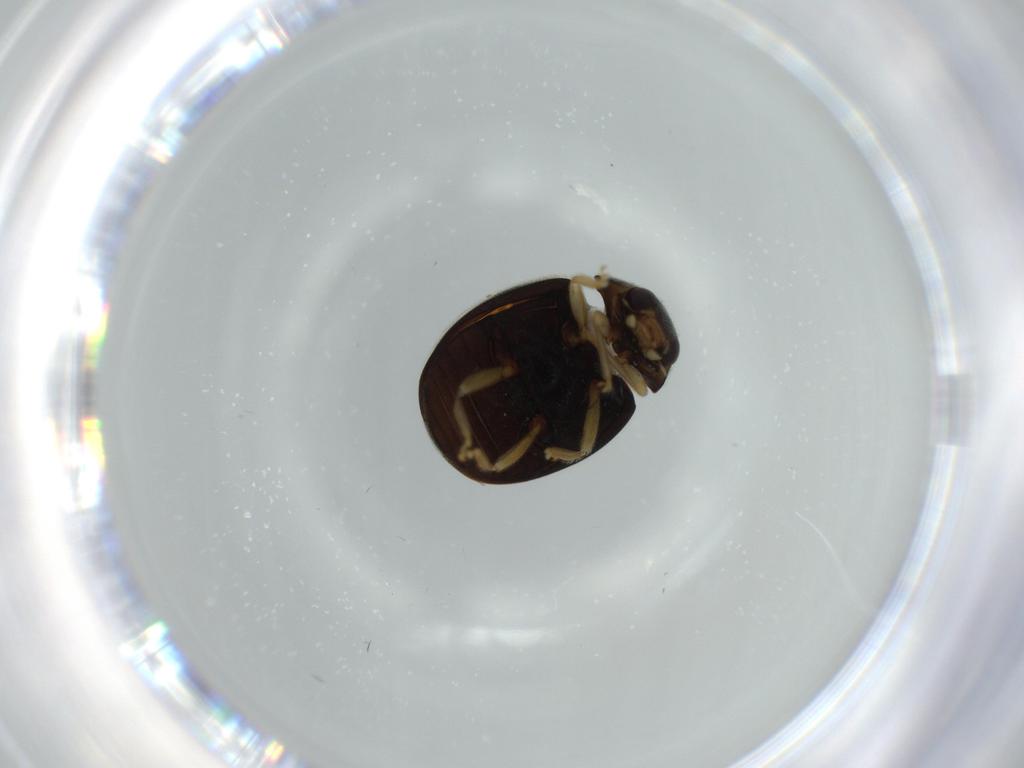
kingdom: Animalia
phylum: Arthropoda
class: Insecta
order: Coleoptera
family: Coccinellidae
